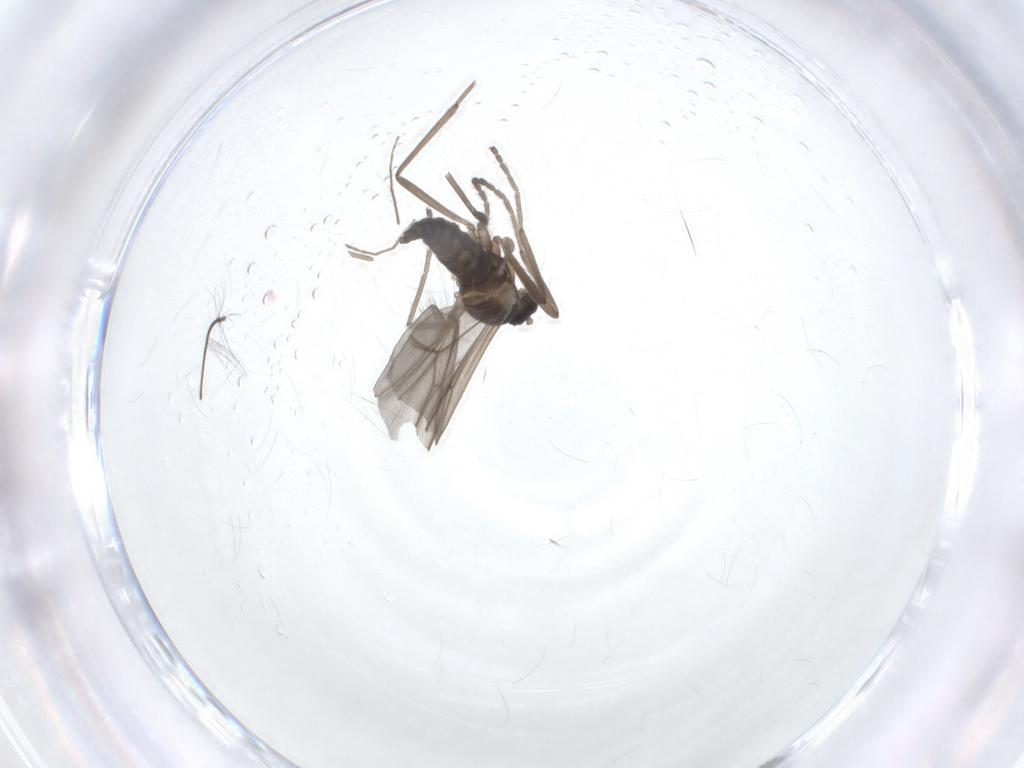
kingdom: Animalia
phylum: Arthropoda
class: Insecta
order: Diptera
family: Cecidomyiidae
